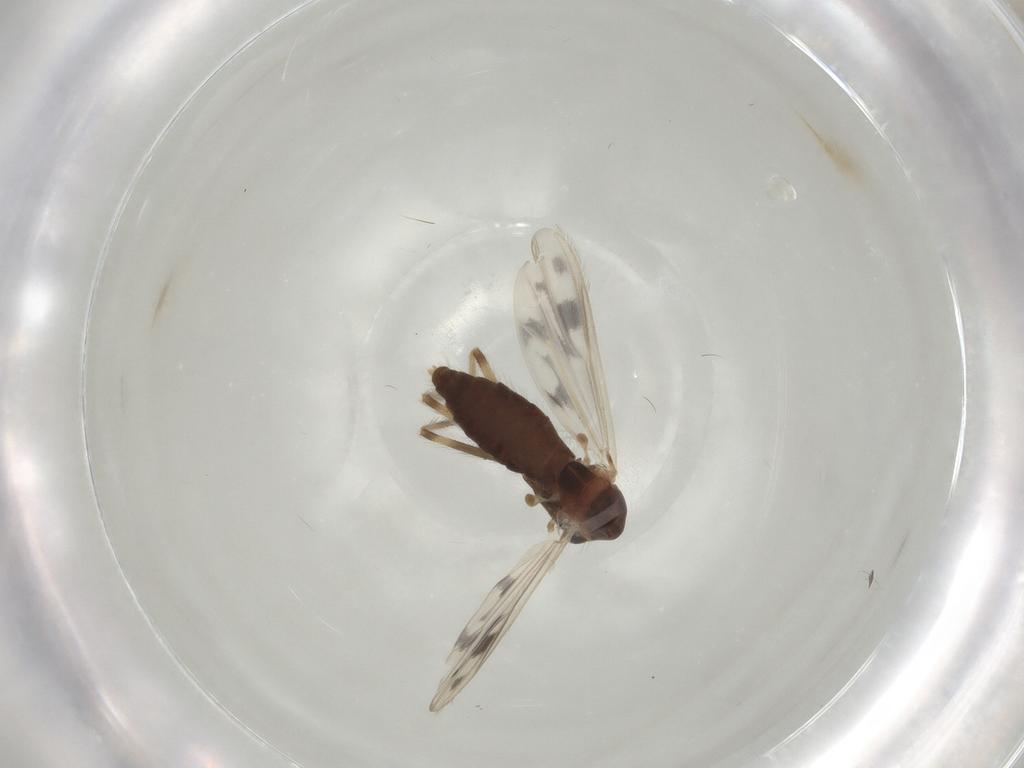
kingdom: Animalia
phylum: Arthropoda
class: Insecta
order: Diptera
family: Chironomidae
